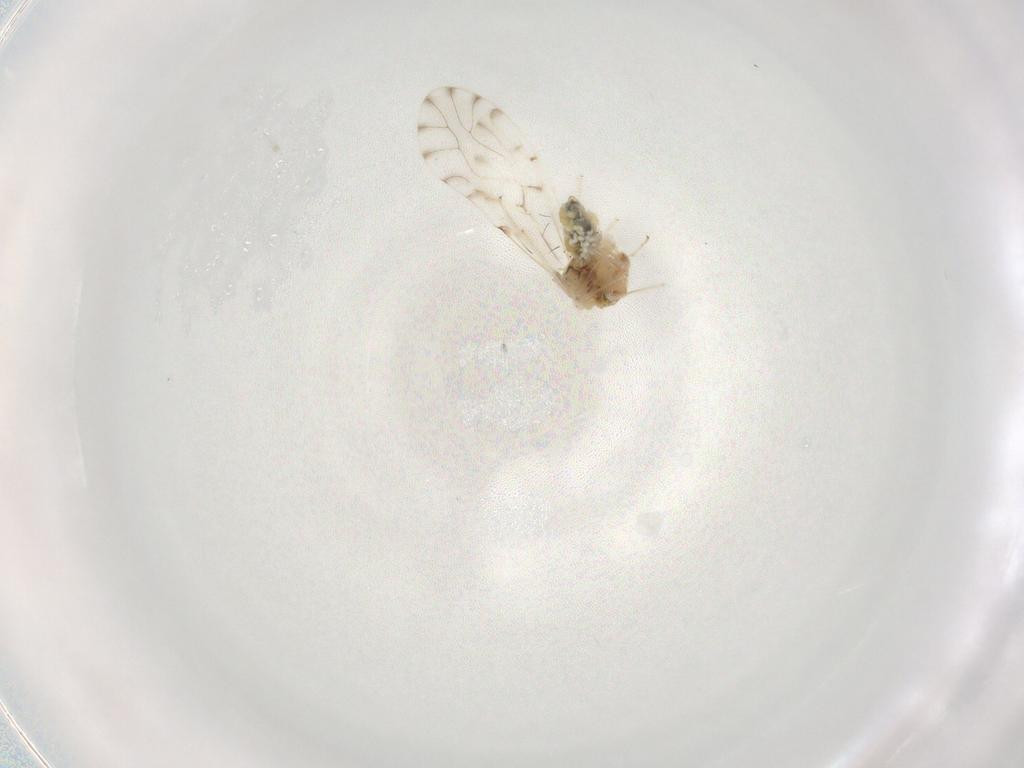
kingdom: Animalia
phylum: Arthropoda
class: Insecta
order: Psocodea
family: Trichopsocidae
